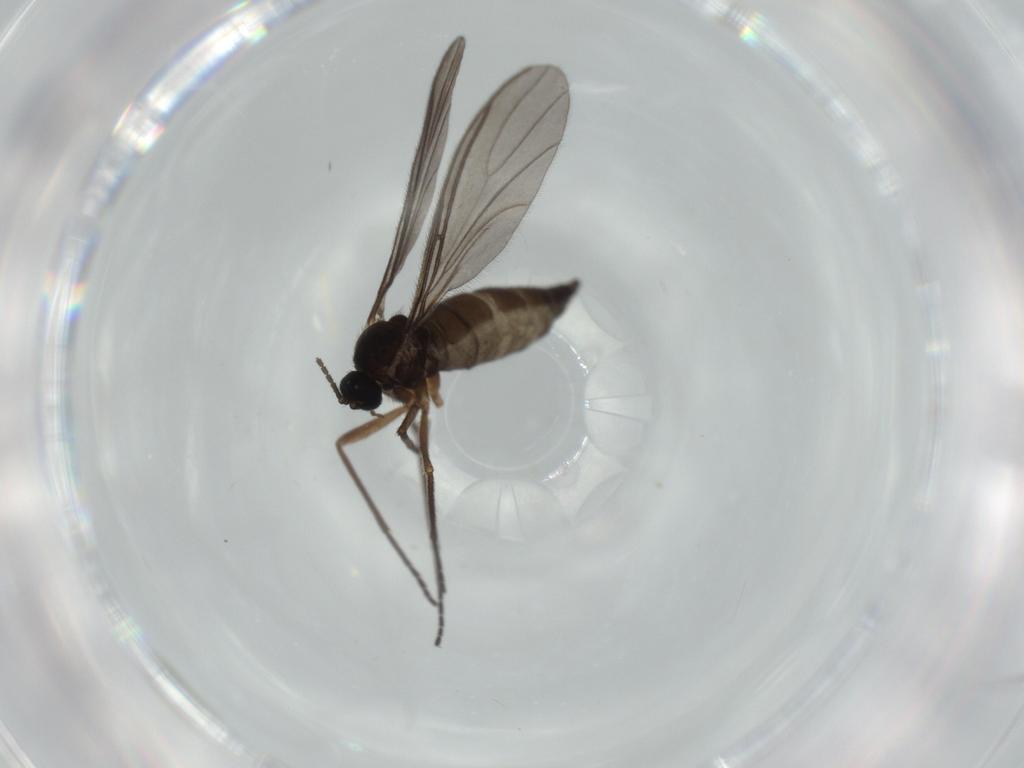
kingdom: Animalia
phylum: Arthropoda
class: Insecta
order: Diptera
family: Sciaridae
